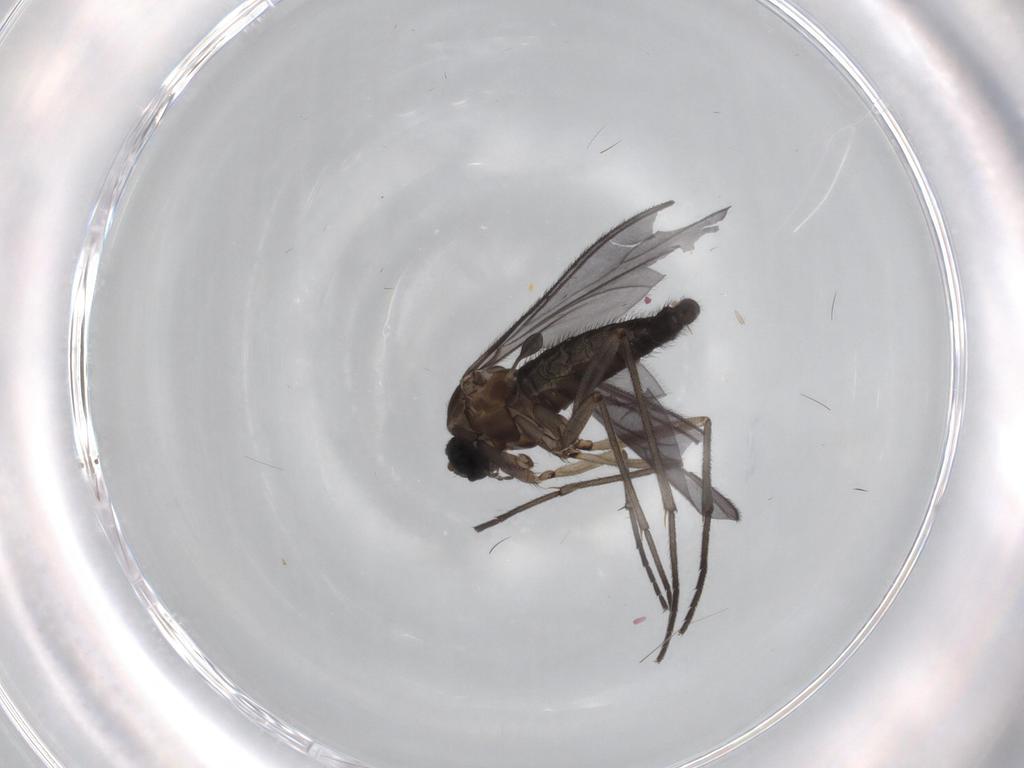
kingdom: Animalia
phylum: Arthropoda
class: Insecta
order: Diptera
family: Sciaridae
